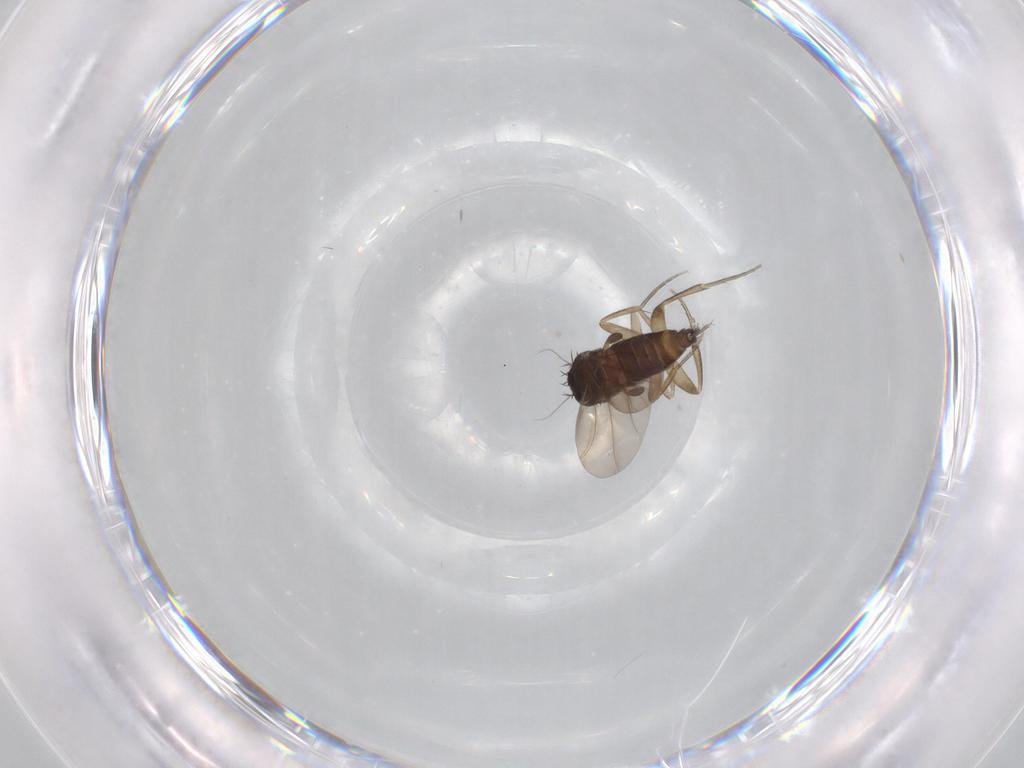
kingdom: Animalia
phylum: Arthropoda
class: Insecta
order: Diptera
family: Phoridae
